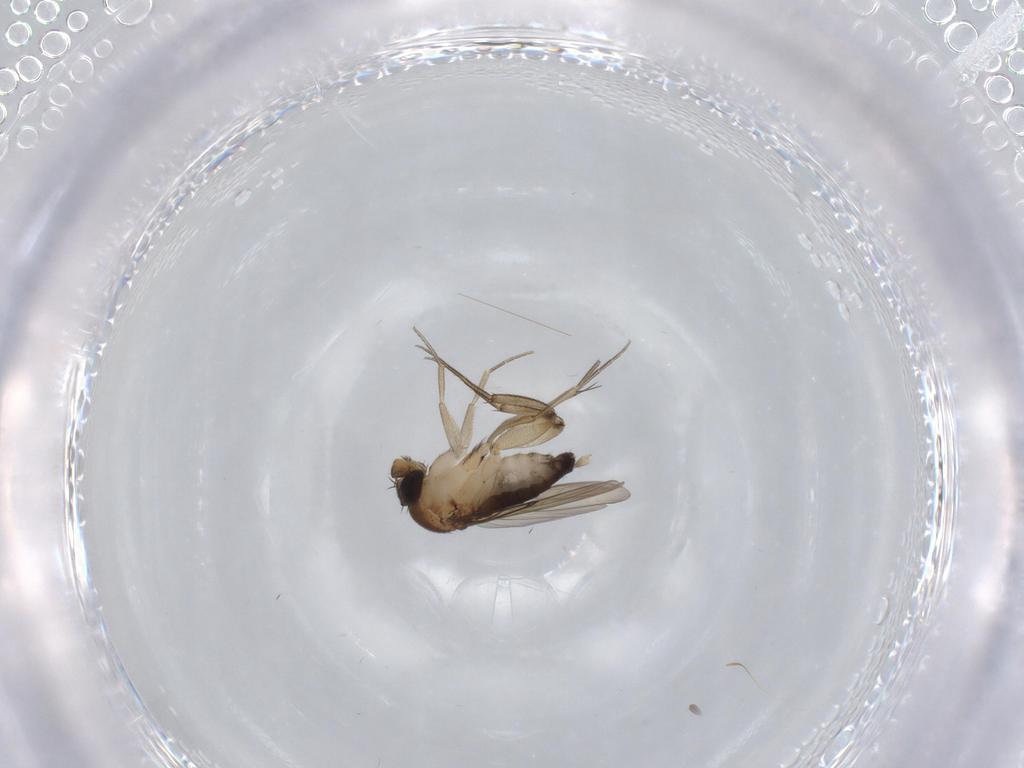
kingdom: Animalia
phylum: Arthropoda
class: Insecta
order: Diptera
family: Phoridae
